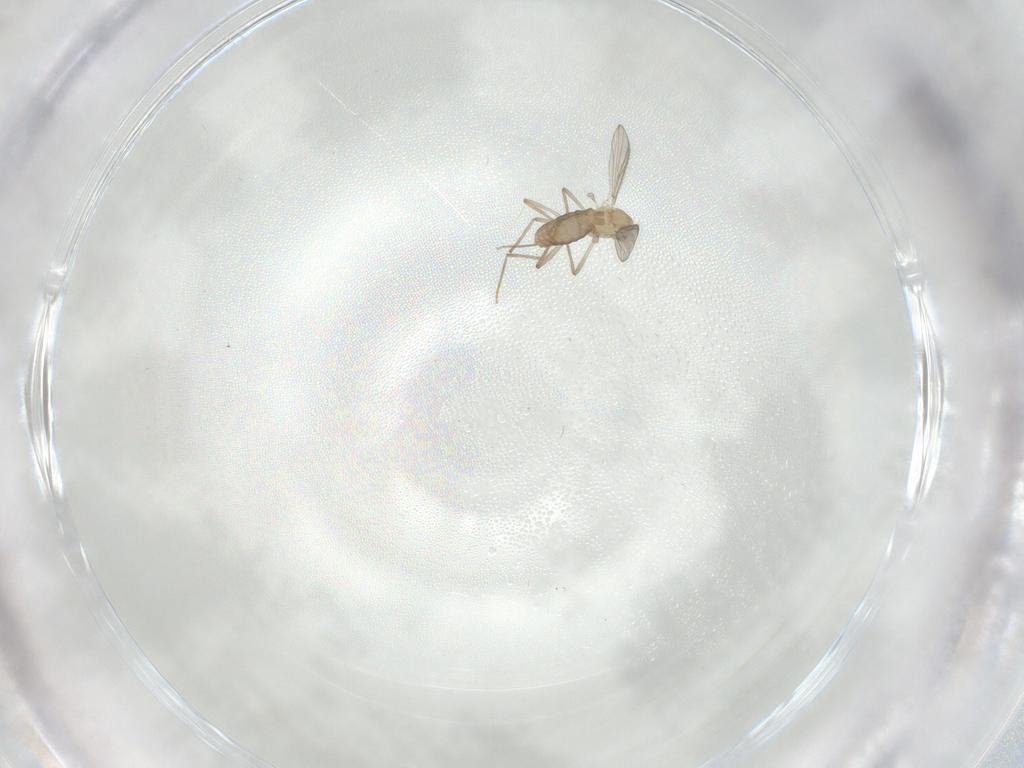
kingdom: Animalia
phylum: Arthropoda
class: Insecta
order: Diptera
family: Chironomidae
